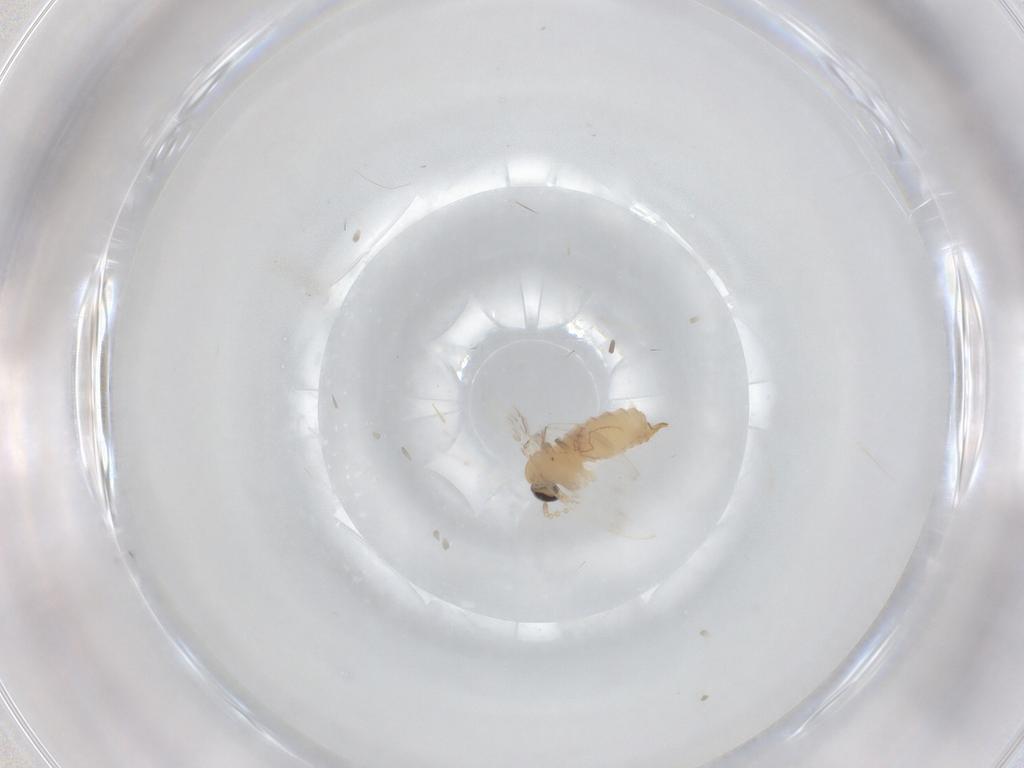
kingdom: Animalia
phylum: Arthropoda
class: Insecta
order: Diptera
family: Chironomidae
